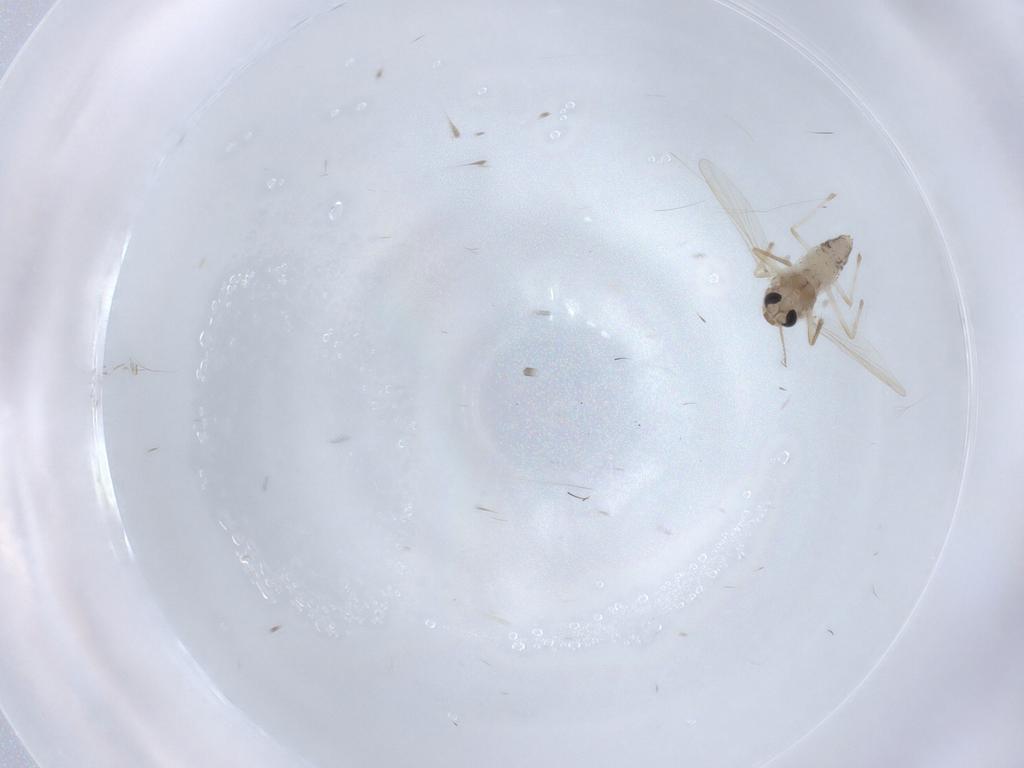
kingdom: Animalia
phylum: Arthropoda
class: Insecta
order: Diptera
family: Chironomidae
